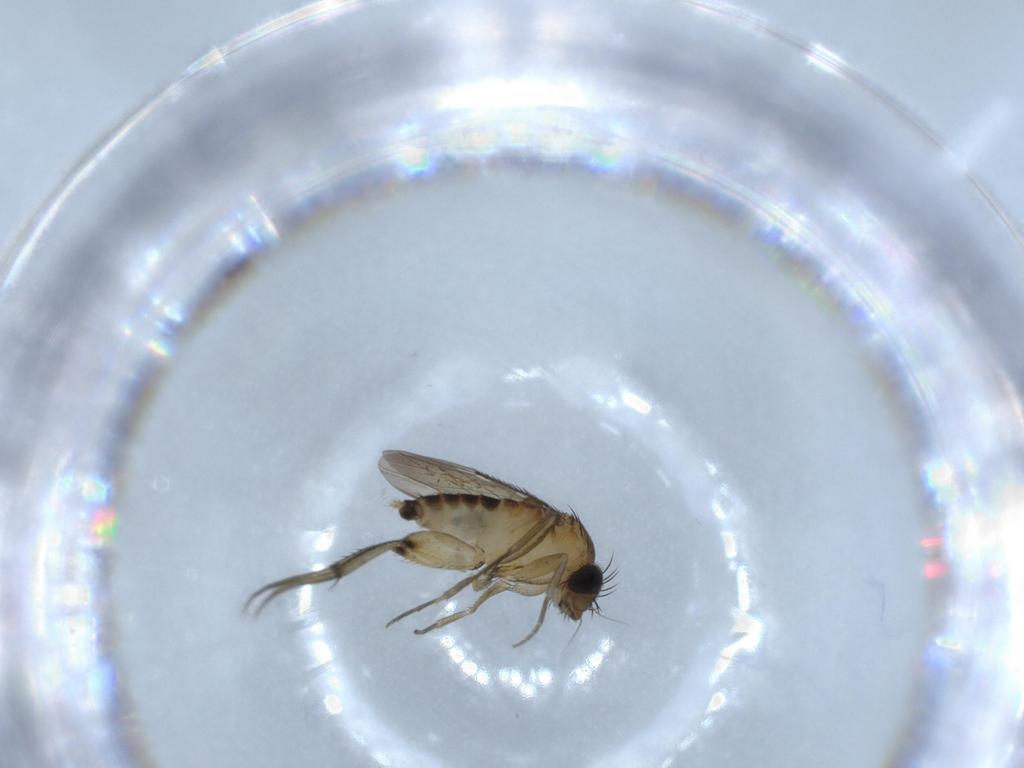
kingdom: Animalia
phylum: Arthropoda
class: Insecta
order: Diptera
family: Phoridae
